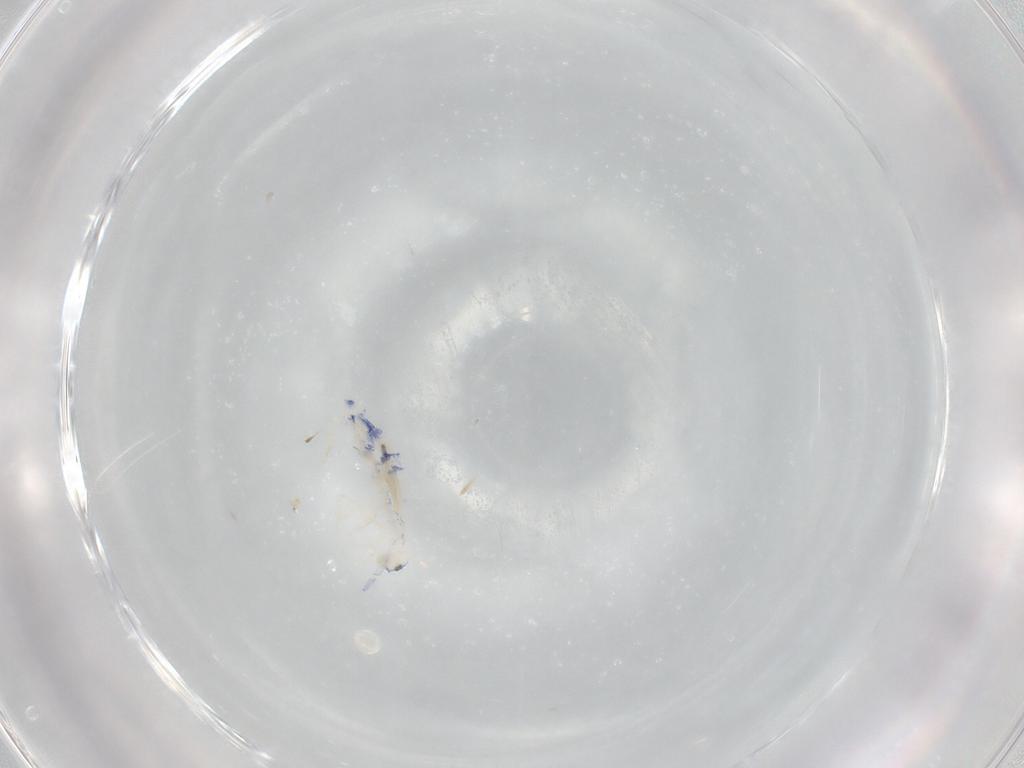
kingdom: Animalia
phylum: Arthropoda
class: Collembola
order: Entomobryomorpha
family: Entomobryidae
